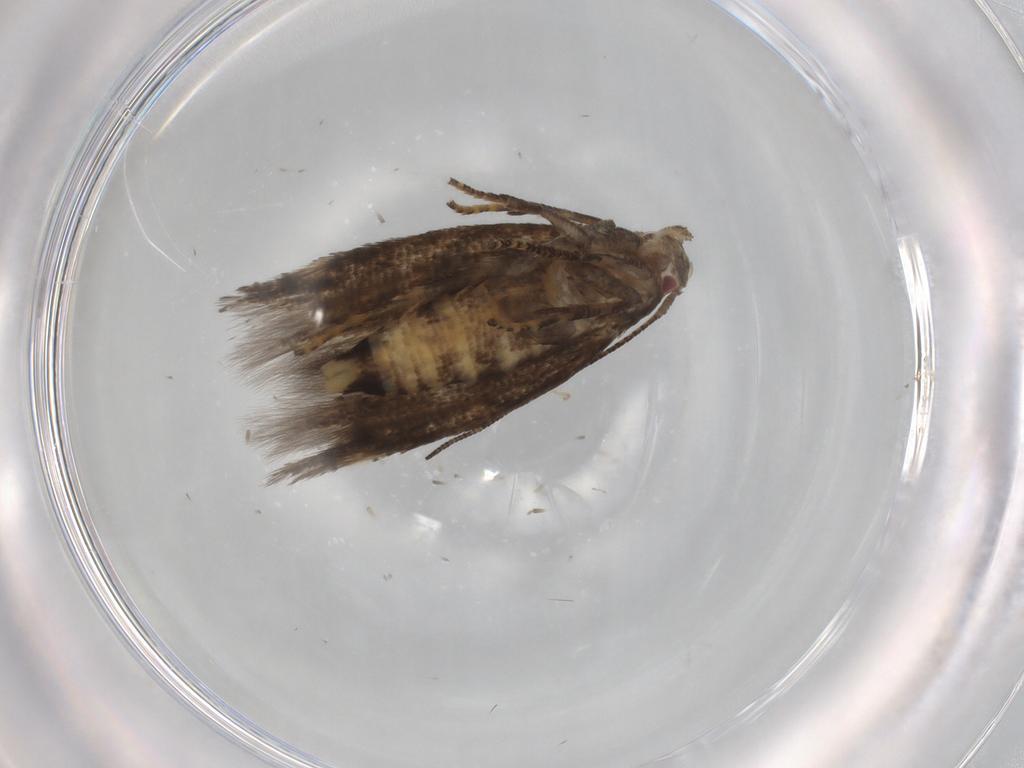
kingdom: Animalia
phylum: Arthropoda
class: Insecta
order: Lepidoptera
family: Momphidae
